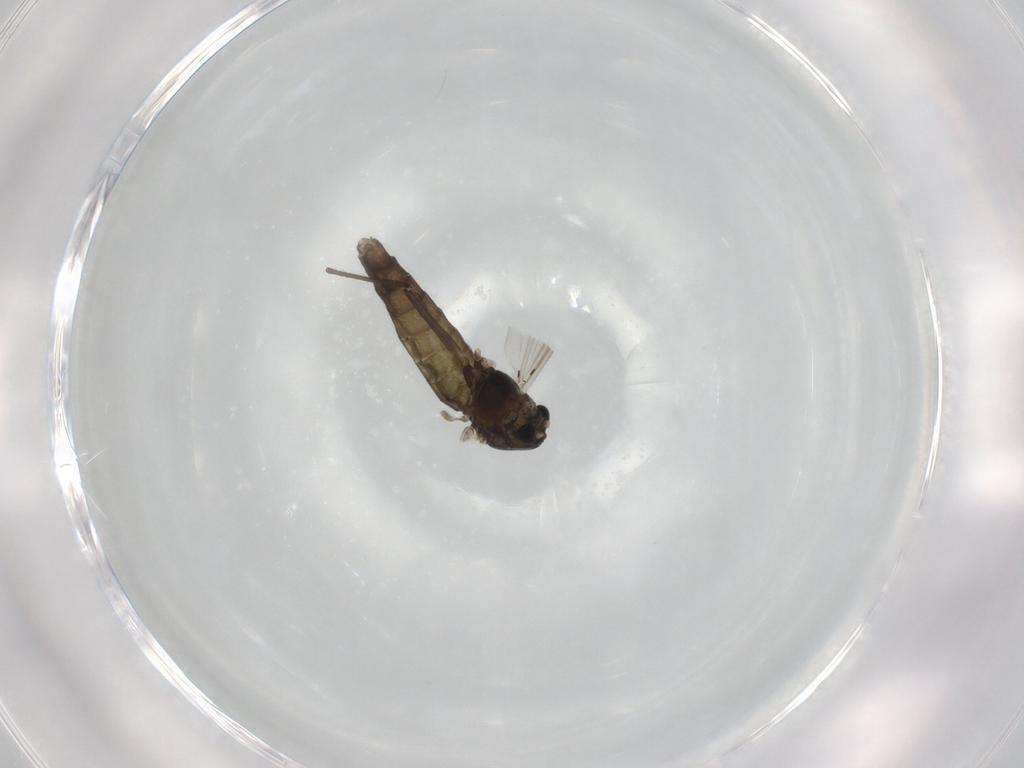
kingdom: Animalia
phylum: Arthropoda
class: Insecta
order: Diptera
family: Chironomidae
